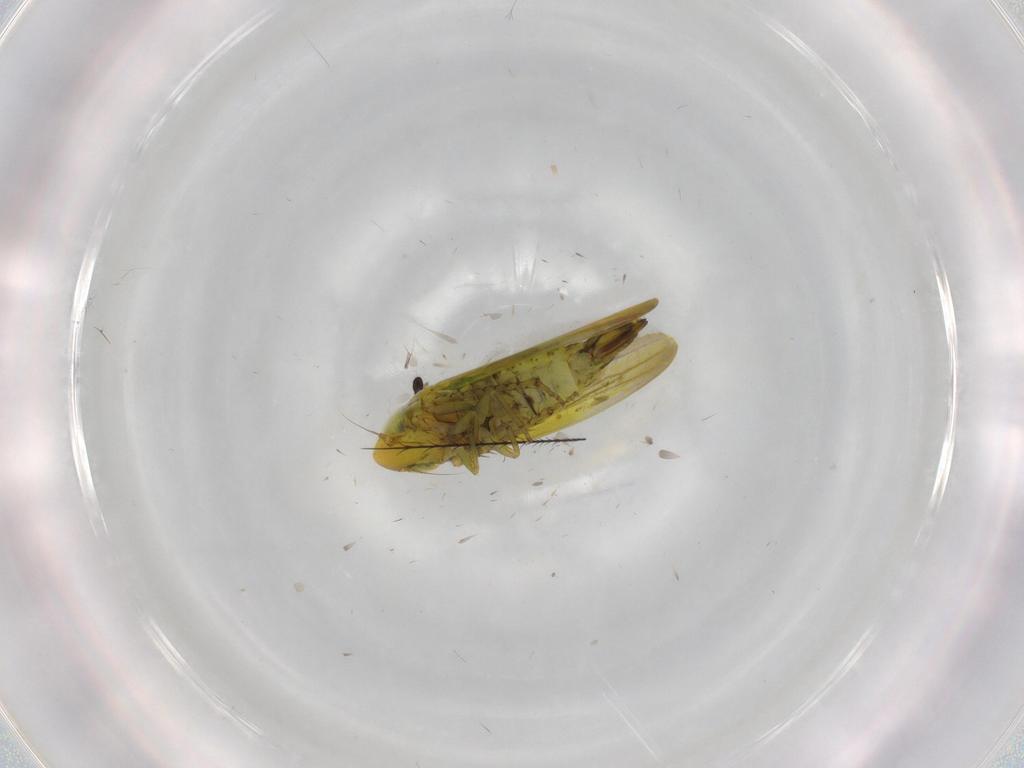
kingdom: Animalia
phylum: Arthropoda
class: Insecta
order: Hemiptera
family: Cicadellidae
